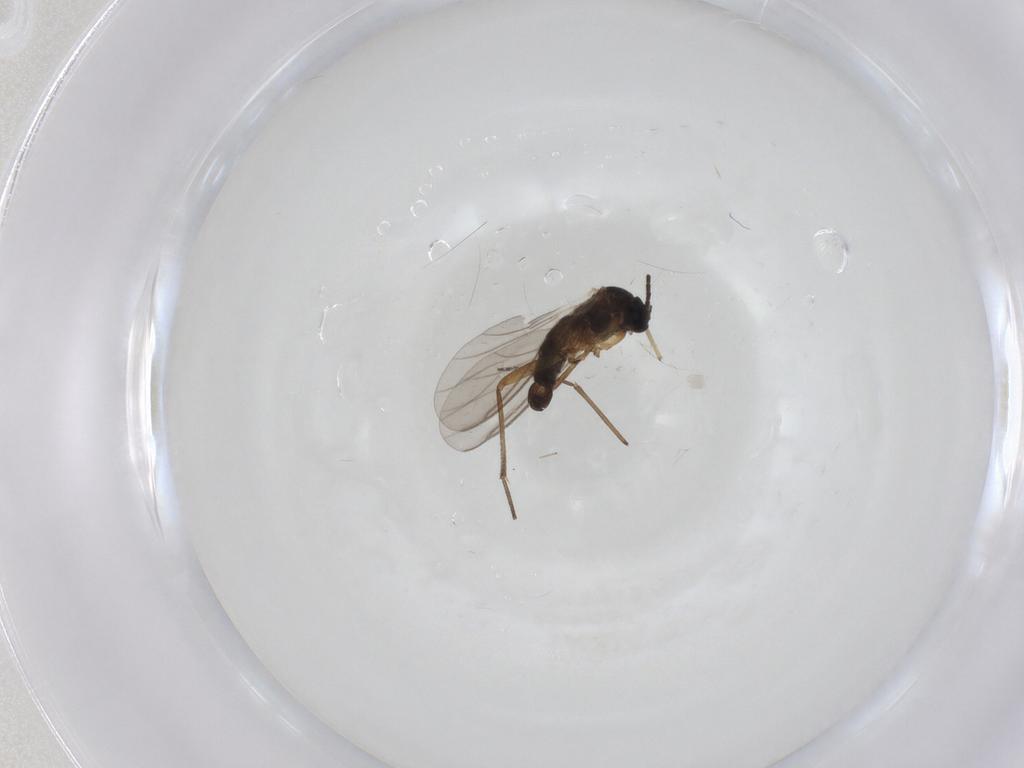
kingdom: Animalia
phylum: Arthropoda
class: Insecta
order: Diptera
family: Sciaridae
